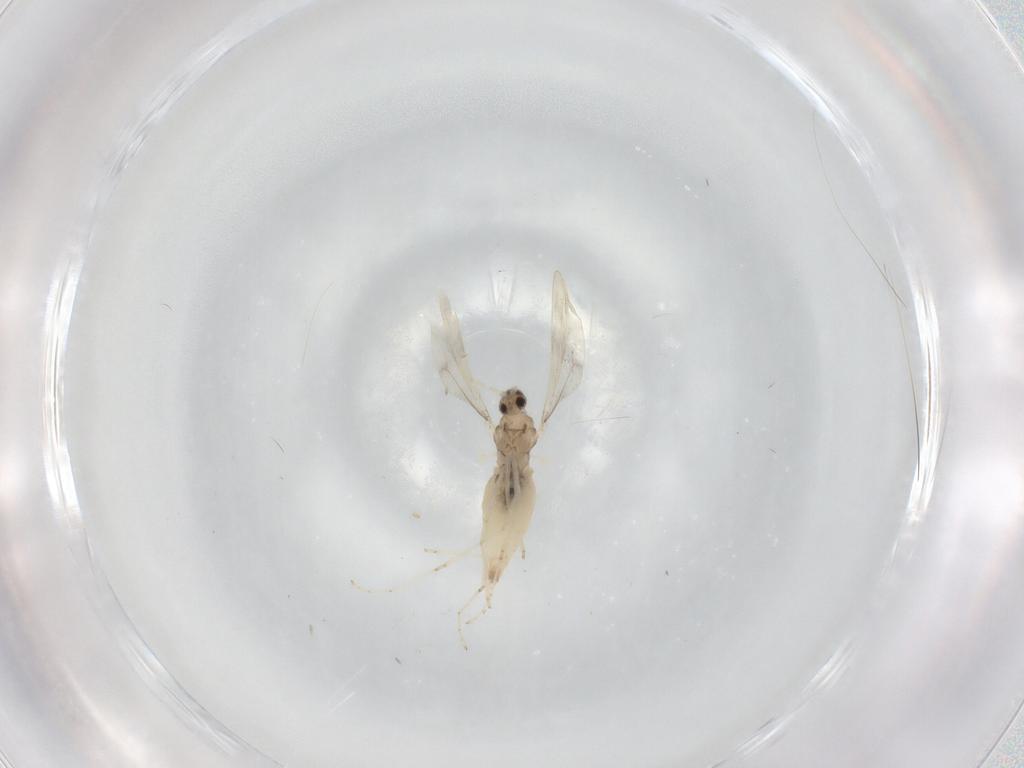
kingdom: Animalia
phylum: Arthropoda
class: Insecta
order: Diptera
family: Cecidomyiidae
